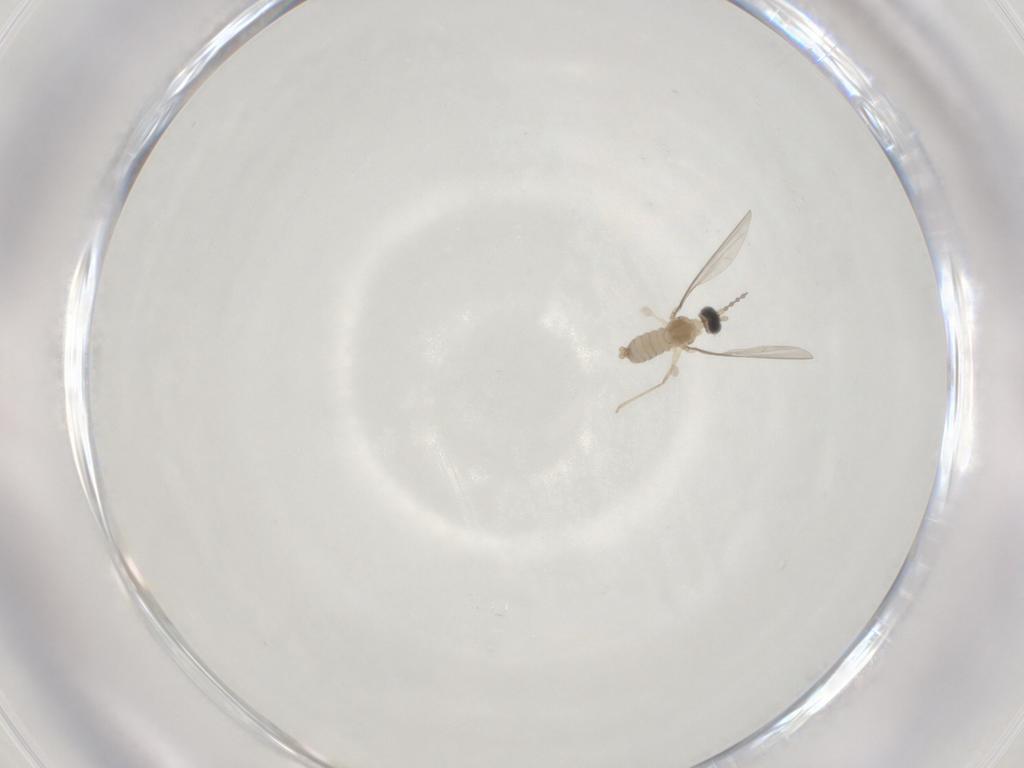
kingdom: Animalia
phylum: Arthropoda
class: Insecta
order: Diptera
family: Cecidomyiidae
